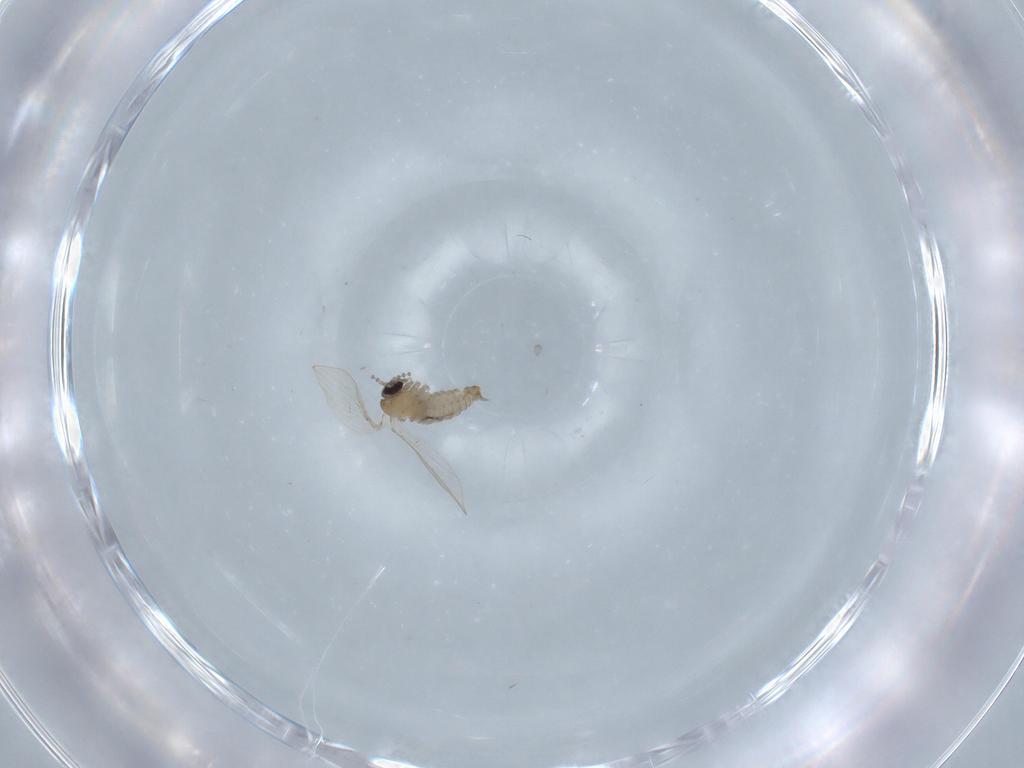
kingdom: Animalia
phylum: Arthropoda
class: Insecta
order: Diptera
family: Psychodidae
